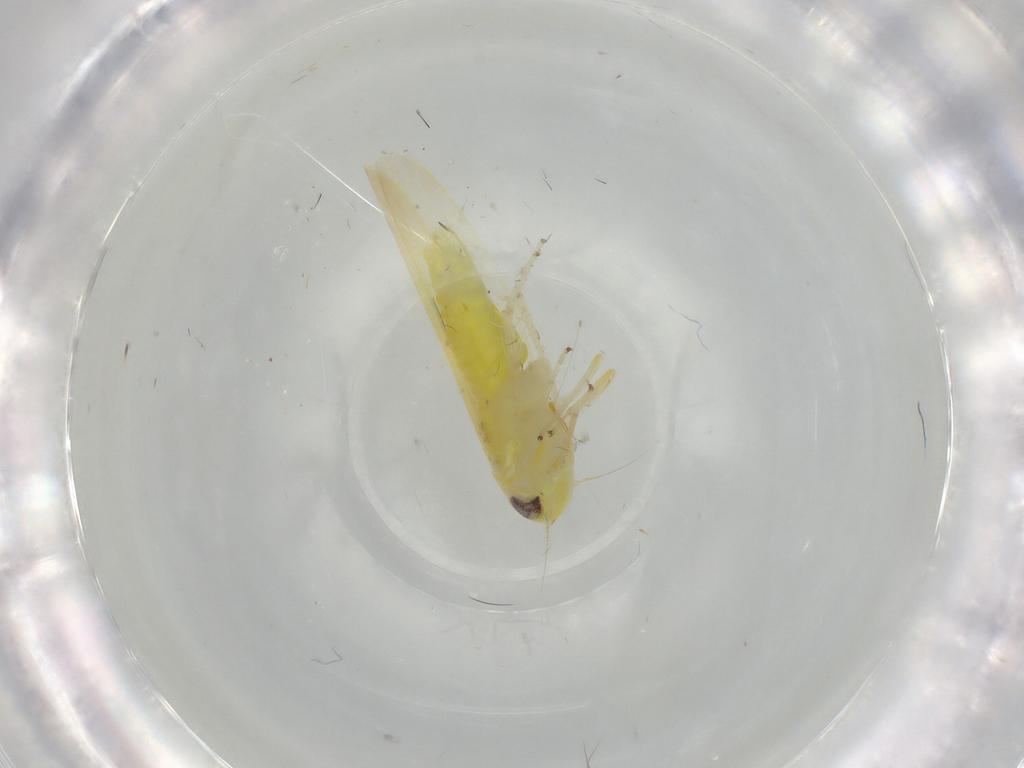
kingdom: Animalia
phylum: Arthropoda
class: Insecta
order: Hemiptera
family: Cicadellidae
